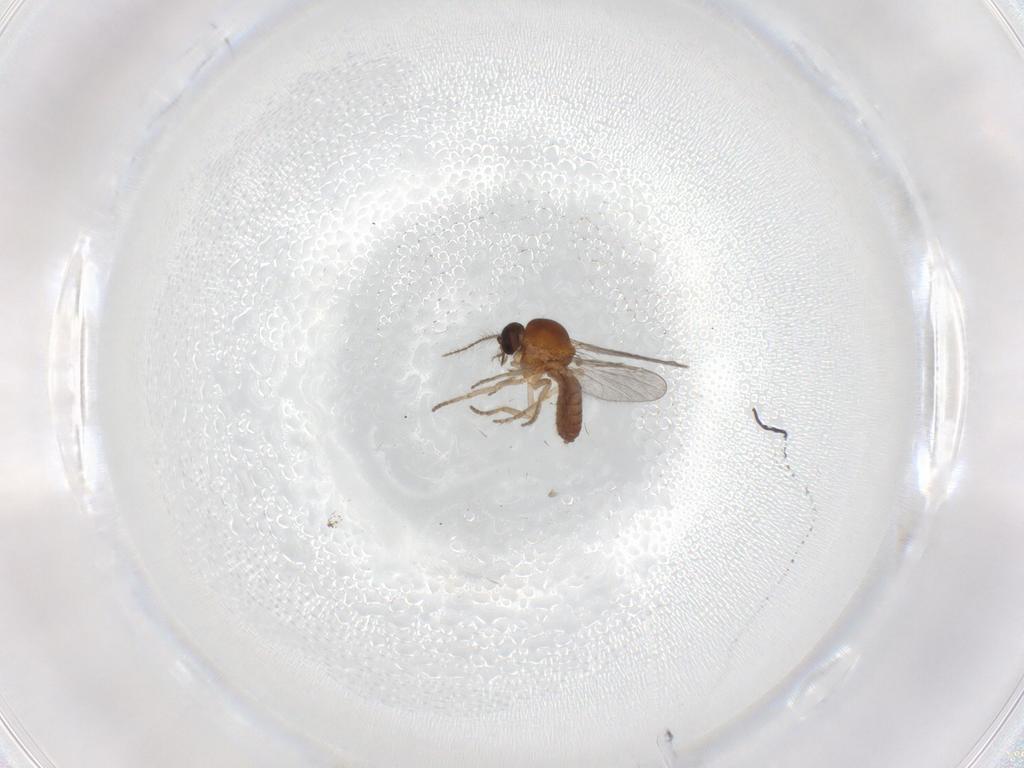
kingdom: Animalia
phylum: Arthropoda
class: Insecta
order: Diptera
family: Ceratopogonidae
